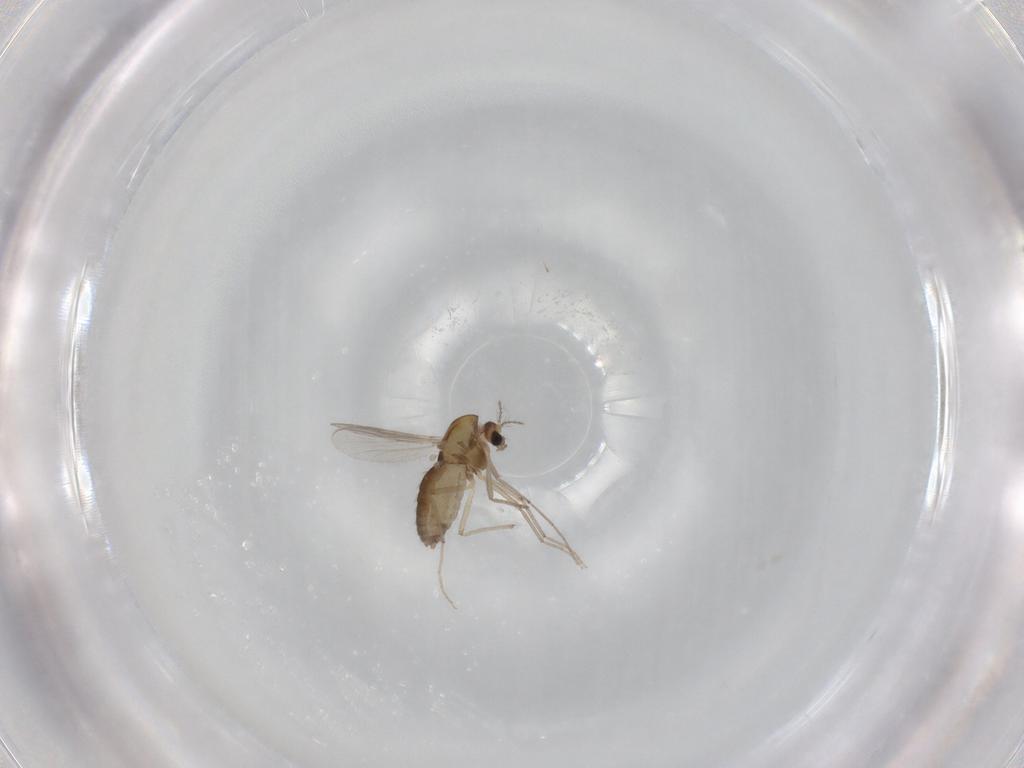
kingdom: Animalia
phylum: Arthropoda
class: Insecta
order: Diptera
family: Chironomidae
